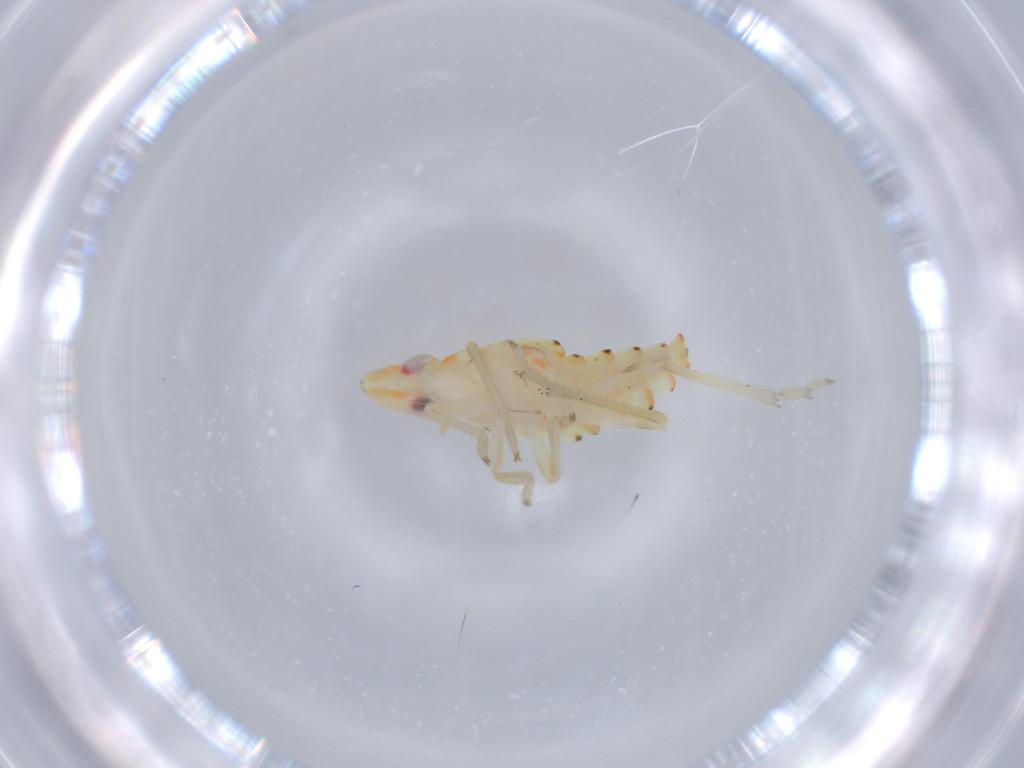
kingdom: Animalia
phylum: Arthropoda
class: Insecta
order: Hemiptera
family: Tropiduchidae
